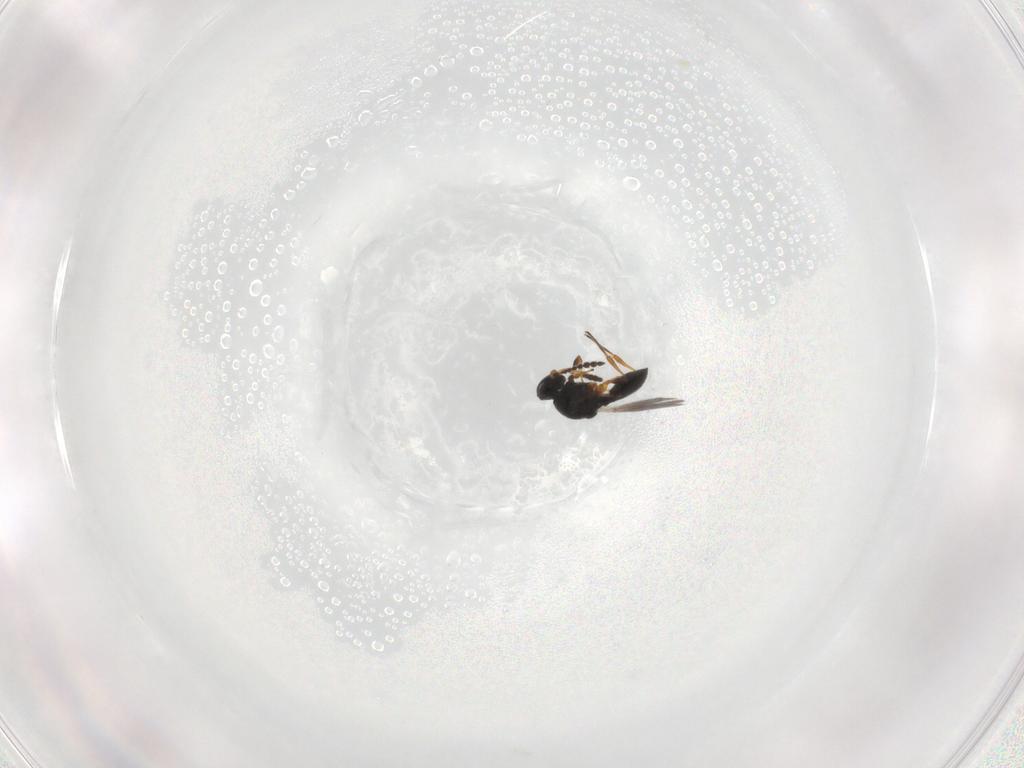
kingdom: Animalia
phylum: Arthropoda
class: Insecta
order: Hymenoptera
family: Platygastridae
